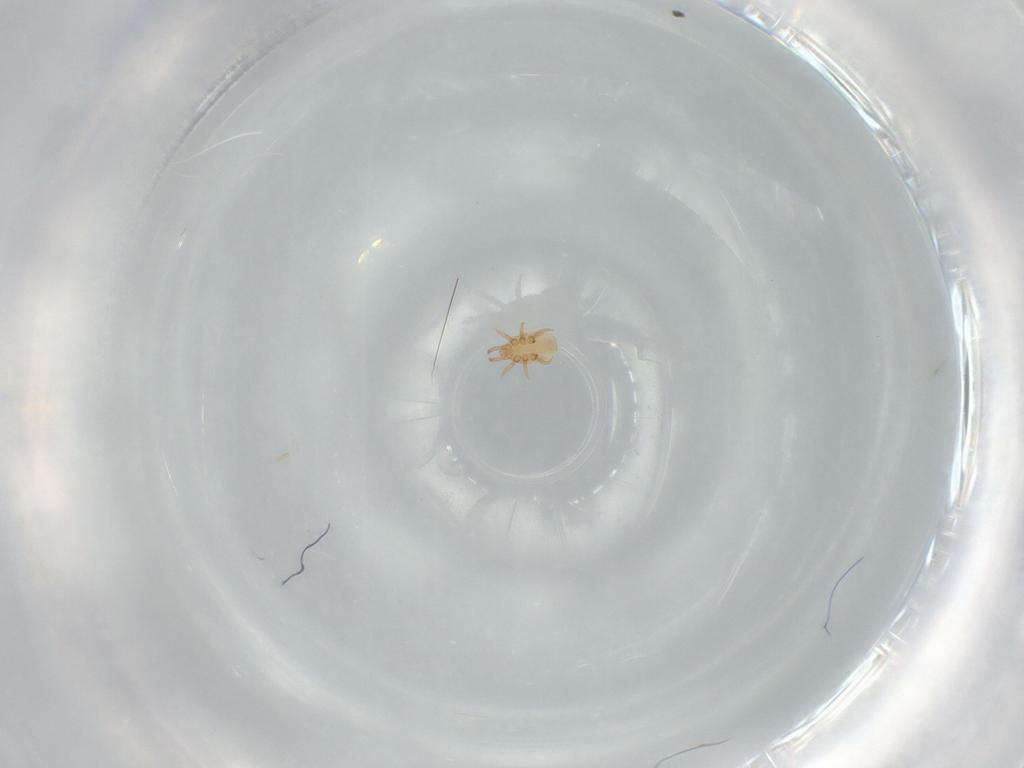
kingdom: Animalia
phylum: Arthropoda
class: Arachnida
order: Mesostigmata
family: Dinychidae
